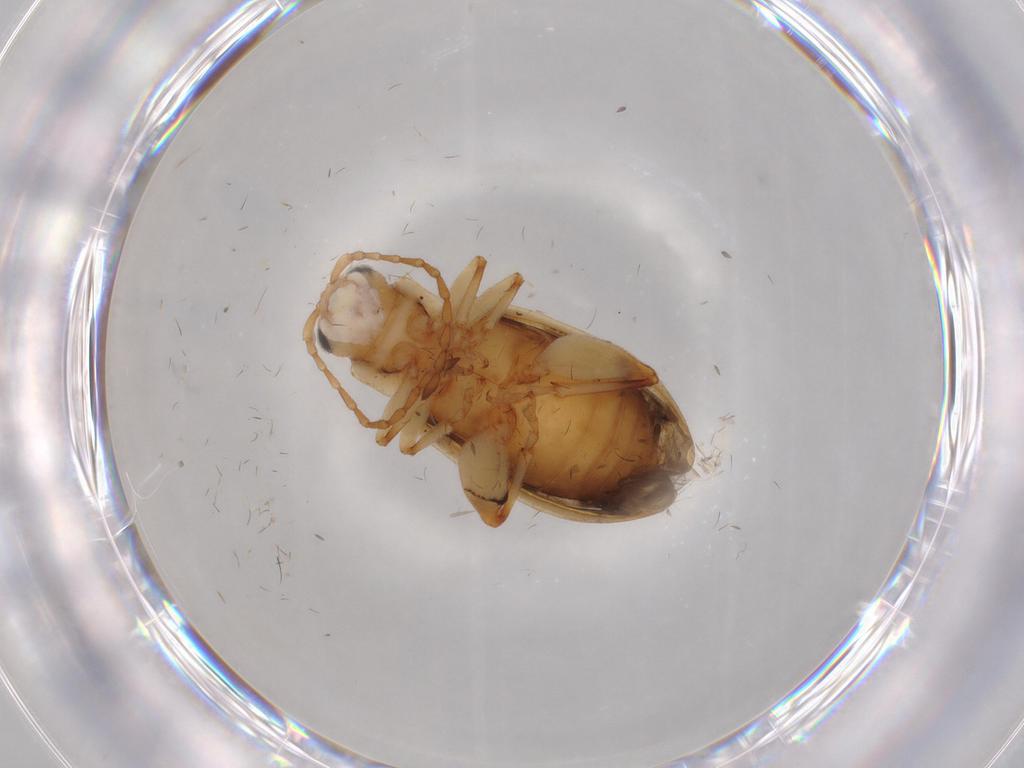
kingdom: Animalia
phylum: Arthropoda
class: Insecta
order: Coleoptera
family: Chrysomelidae
